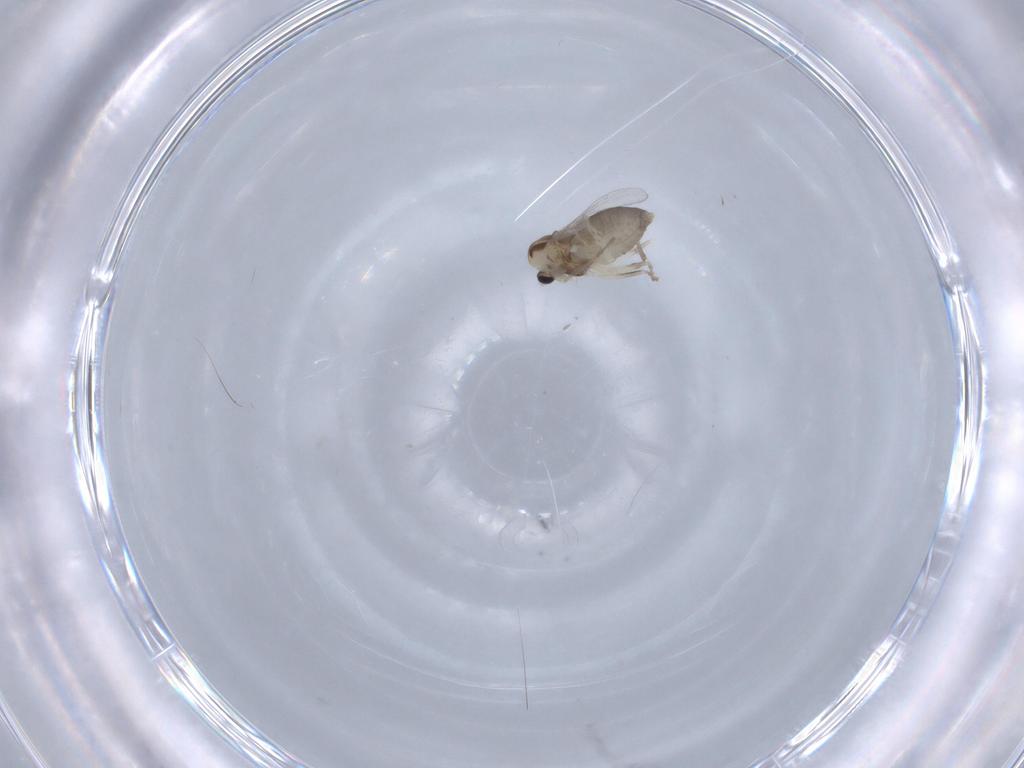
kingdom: Animalia
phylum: Arthropoda
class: Insecta
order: Diptera
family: Chironomidae
